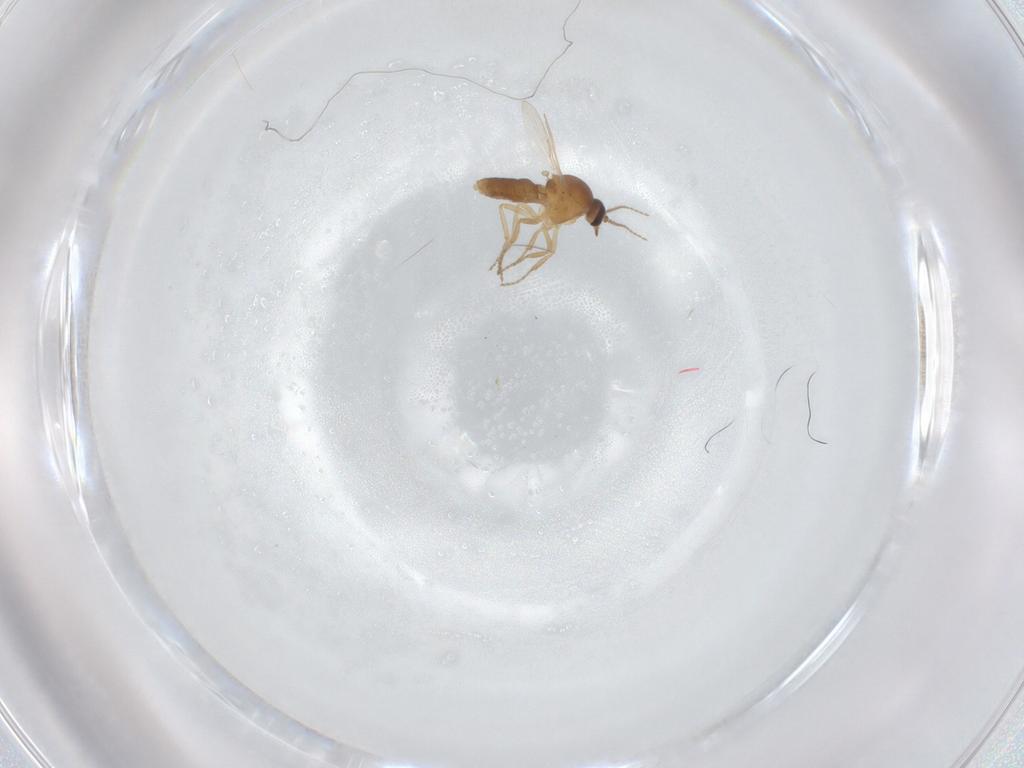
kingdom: Animalia
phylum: Arthropoda
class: Insecta
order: Diptera
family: Ceratopogonidae
